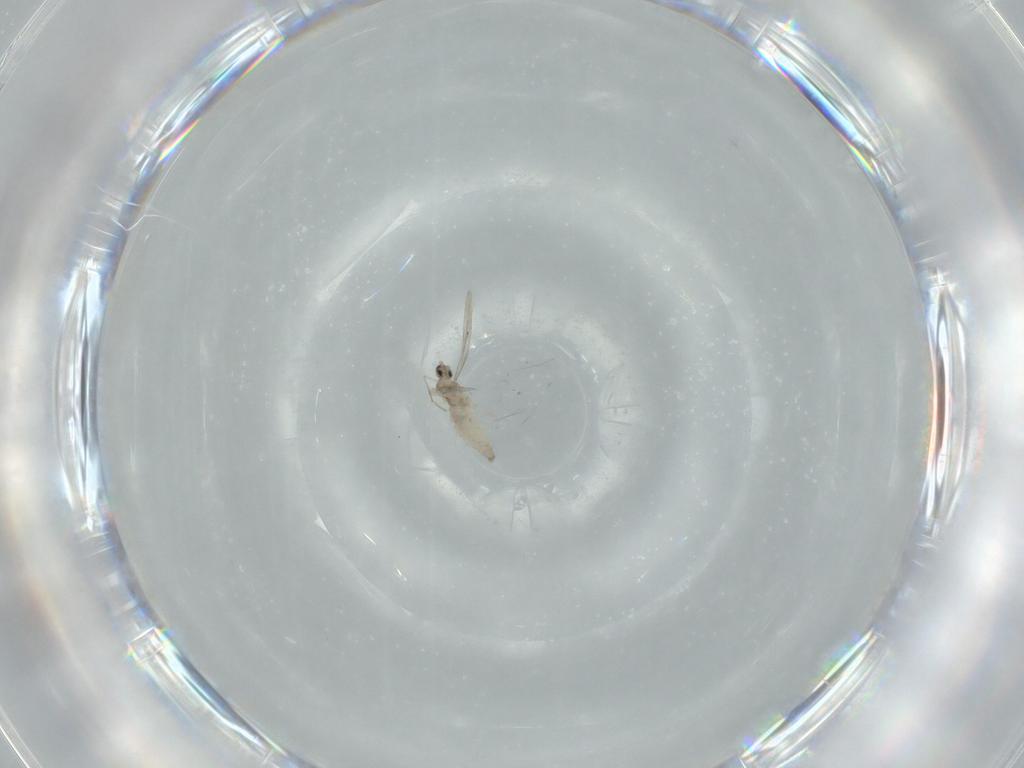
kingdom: Animalia
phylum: Arthropoda
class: Insecta
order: Diptera
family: Cecidomyiidae
